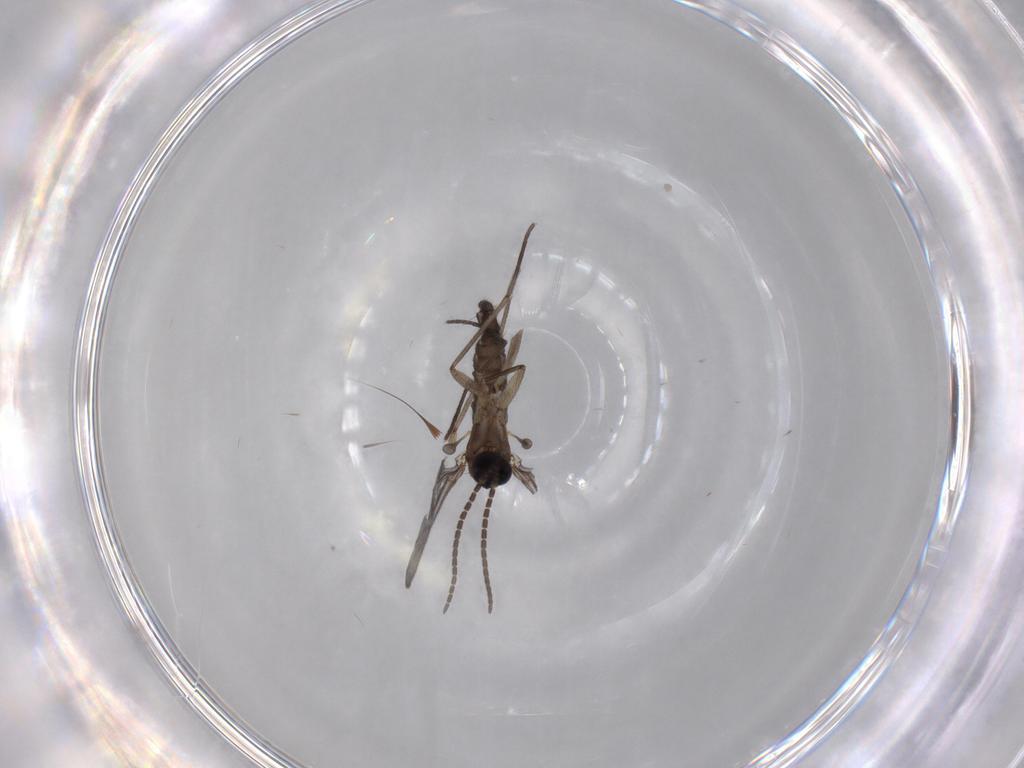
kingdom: Animalia
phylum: Arthropoda
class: Insecta
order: Diptera
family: Sciaridae
